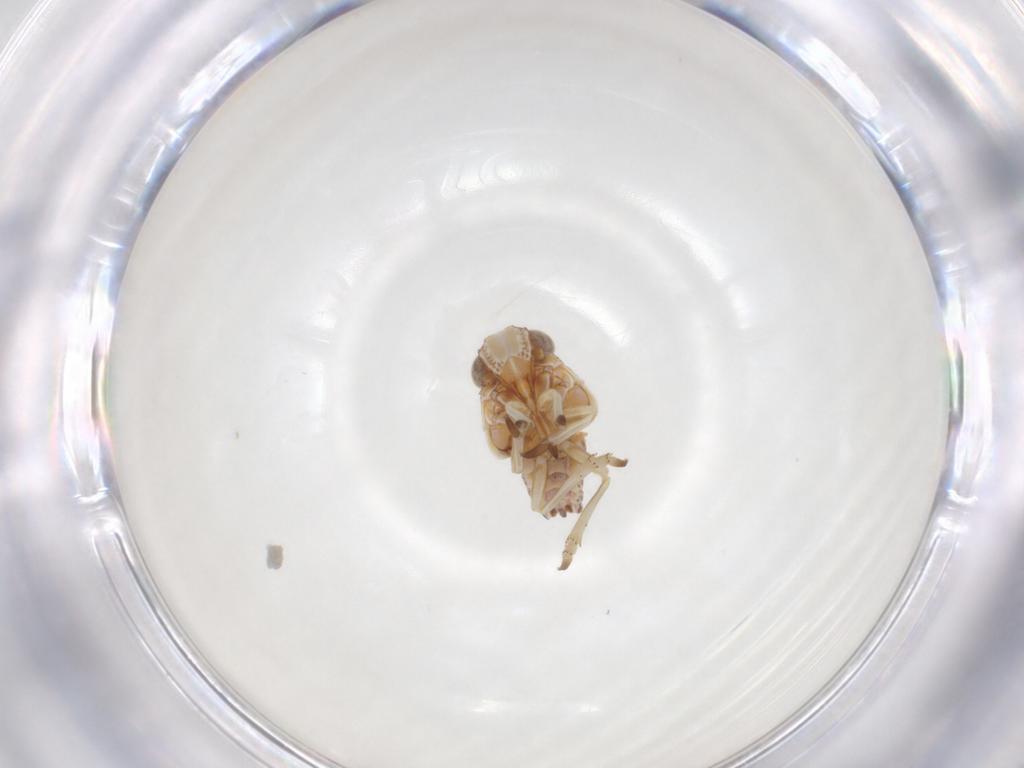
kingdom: Animalia
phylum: Arthropoda
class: Insecta
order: Hemiptera
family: Tropiduchidae
